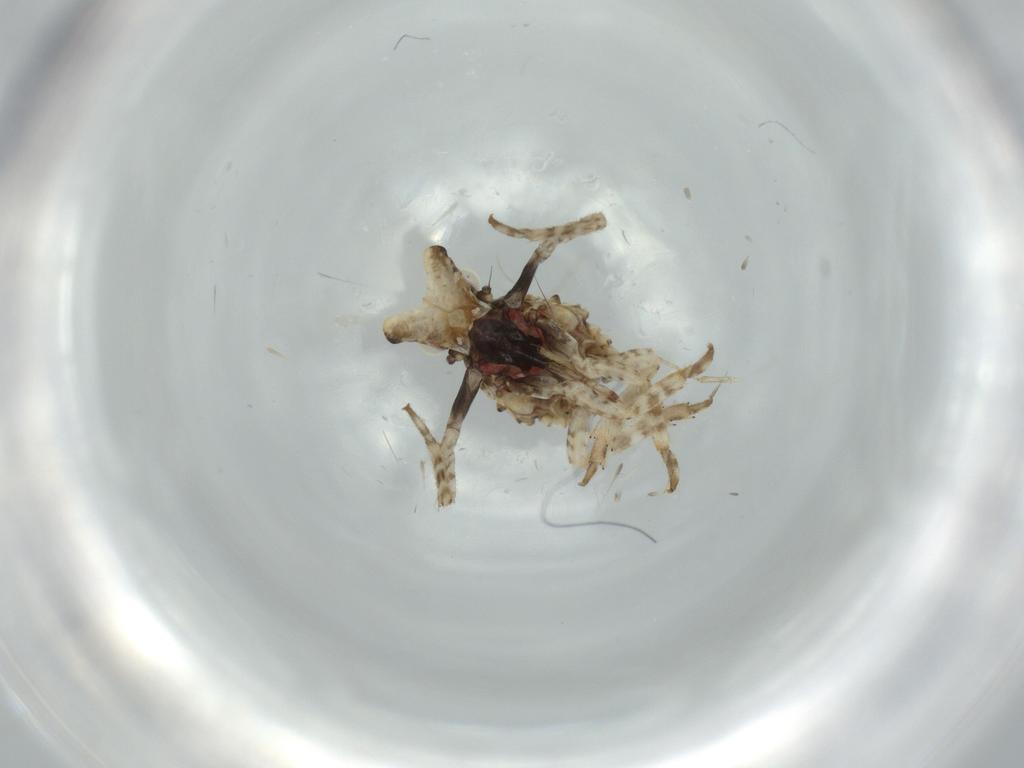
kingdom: Animalia
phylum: Arthropoda
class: Insecta
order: Hemiptera
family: Fulgoridae
